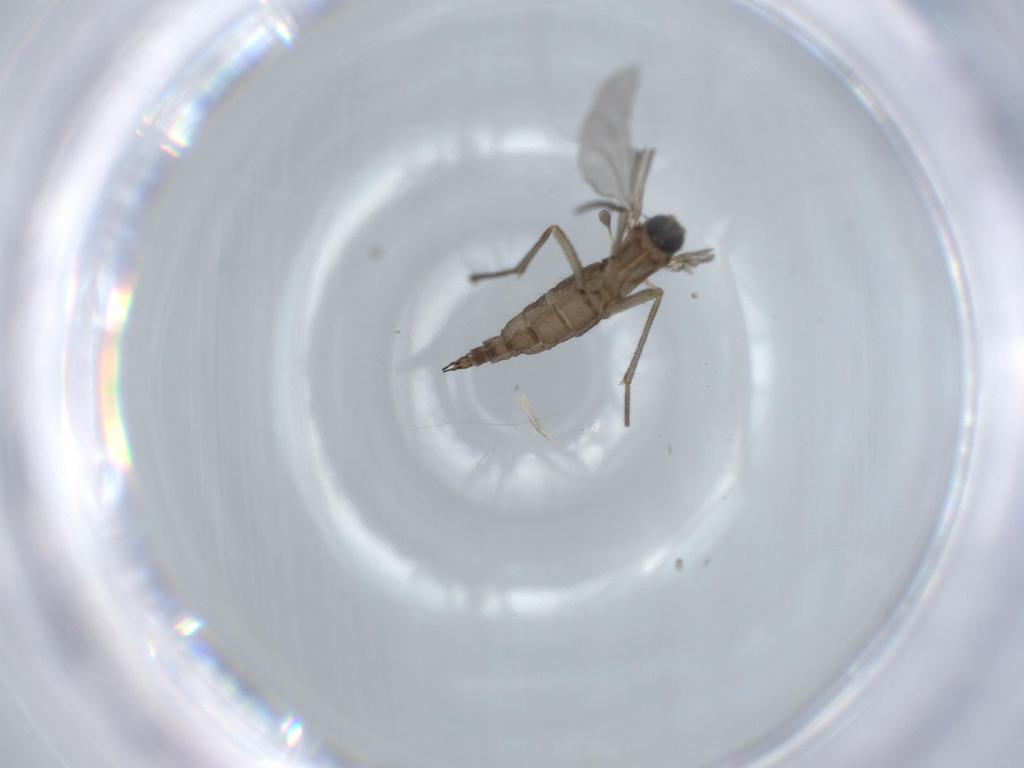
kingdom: Animalia
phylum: Arthropoda
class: Insecta
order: Diptera
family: Sciaridae
